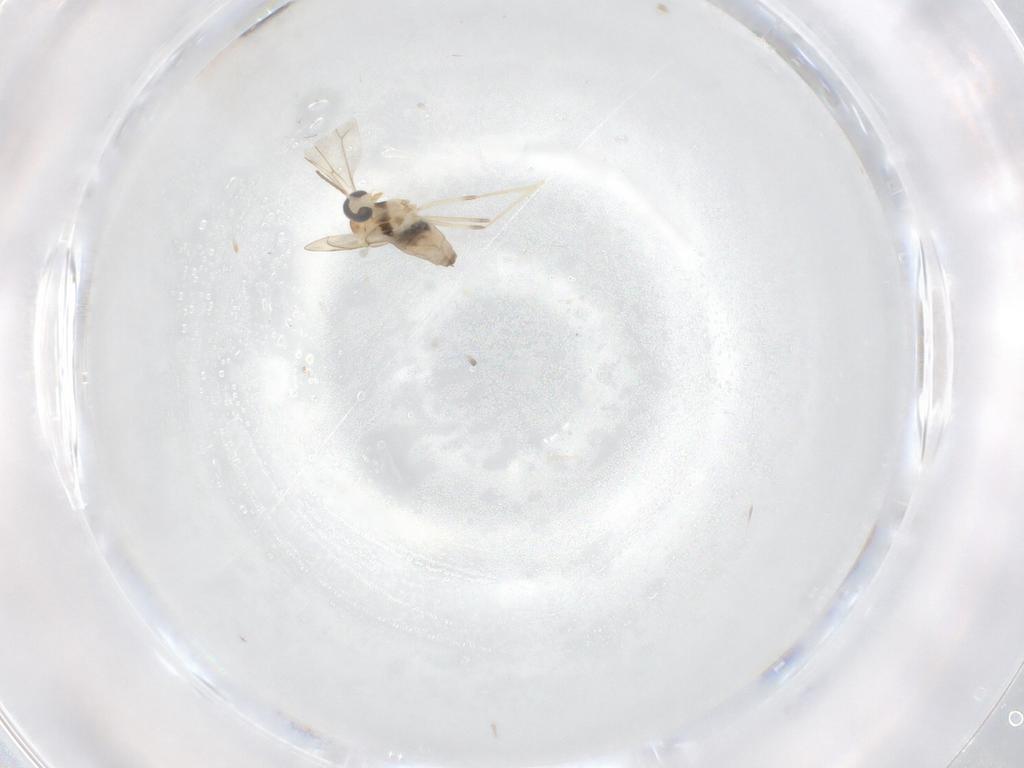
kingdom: Animalia
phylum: Arthropoda
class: Insecta
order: Diptera
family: Cecidomyiidae
